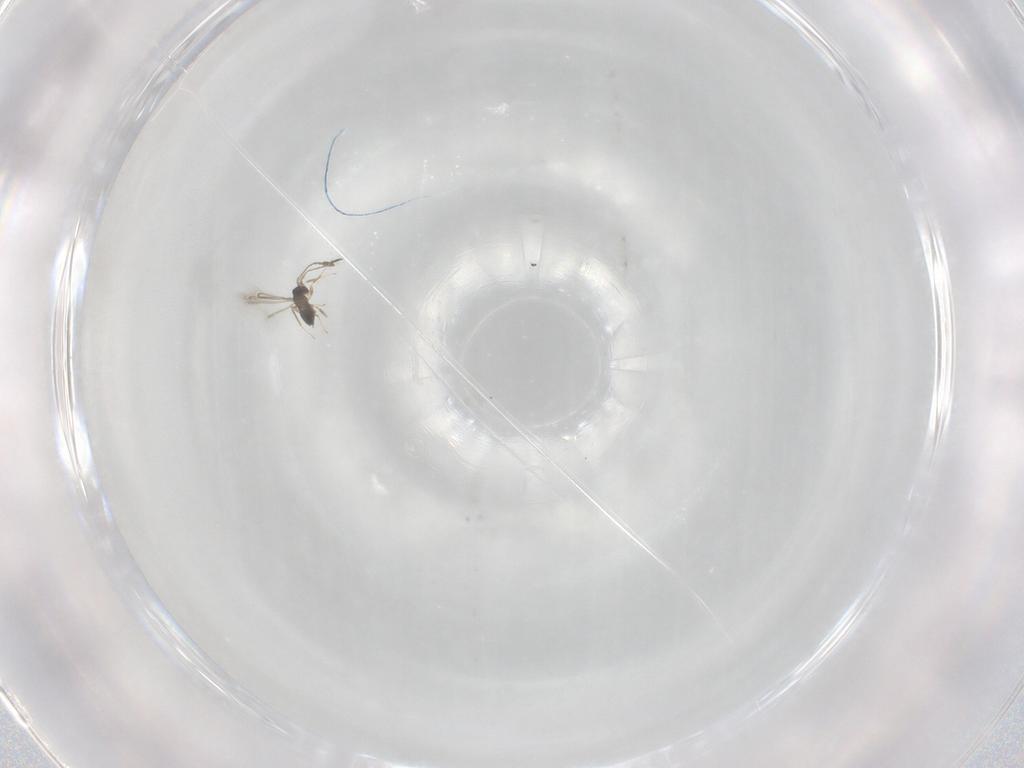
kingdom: Animalia
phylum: Arthropoda
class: Insecta
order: Hymenoptera
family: Mymaridae
